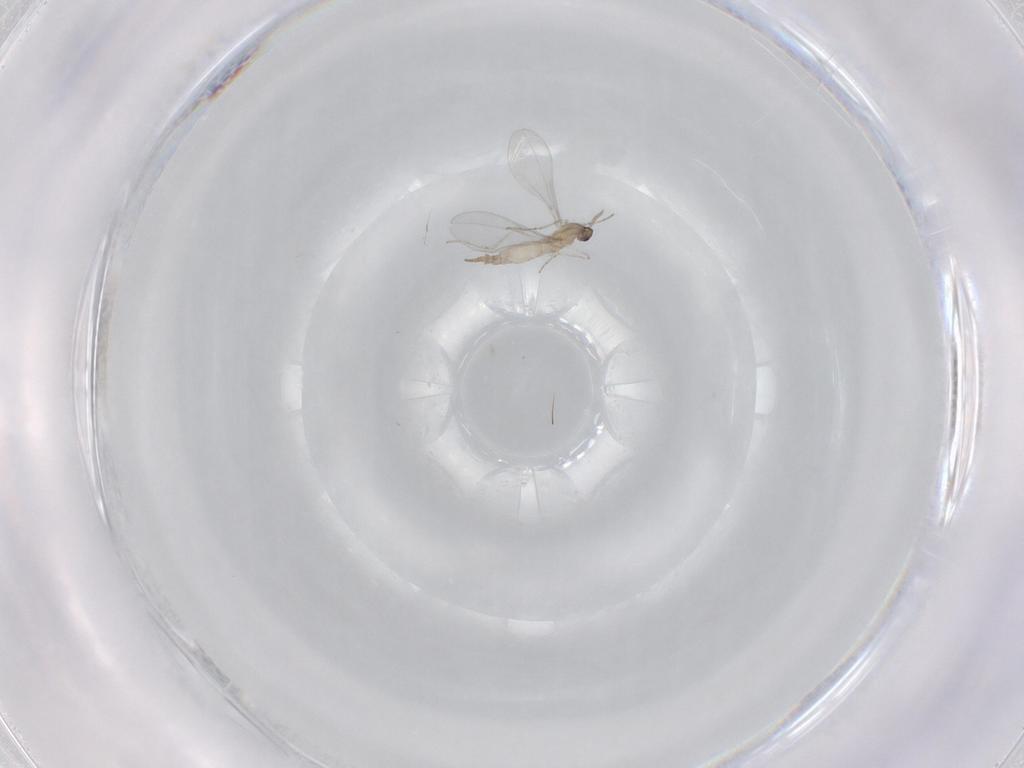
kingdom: Animalia
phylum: Arthropoda
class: Insecta
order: Diptera
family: Cecidomyiidae
